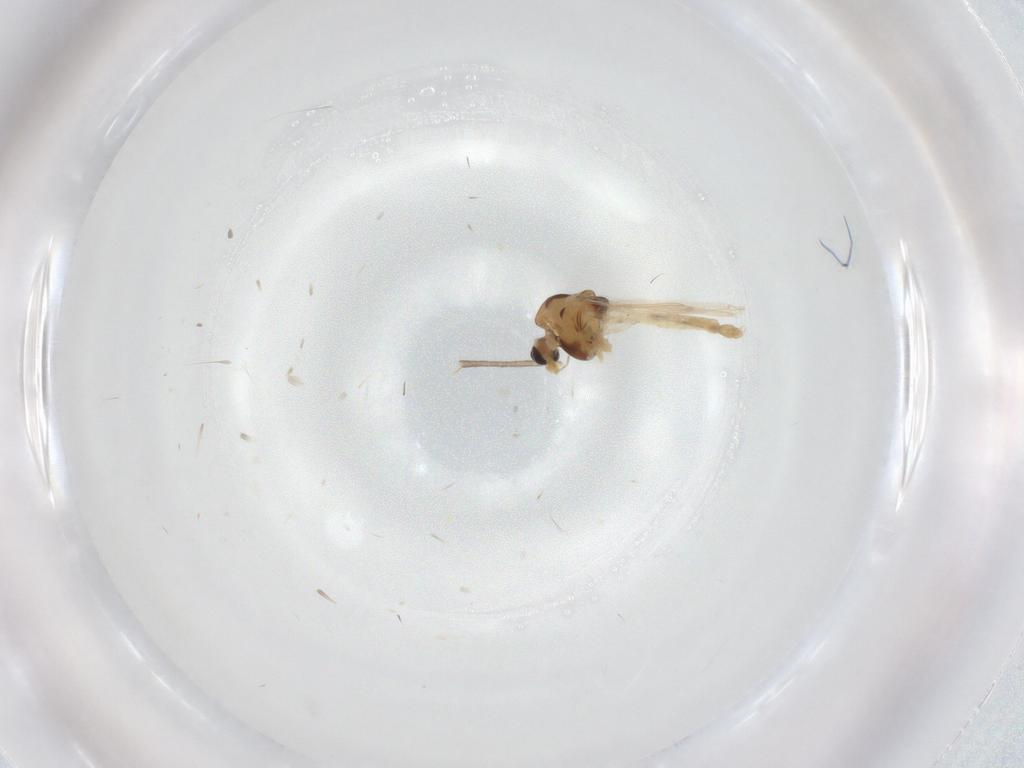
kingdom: Animalia
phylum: Arthropoda
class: Insecta
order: Diptera
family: Chironomidae
